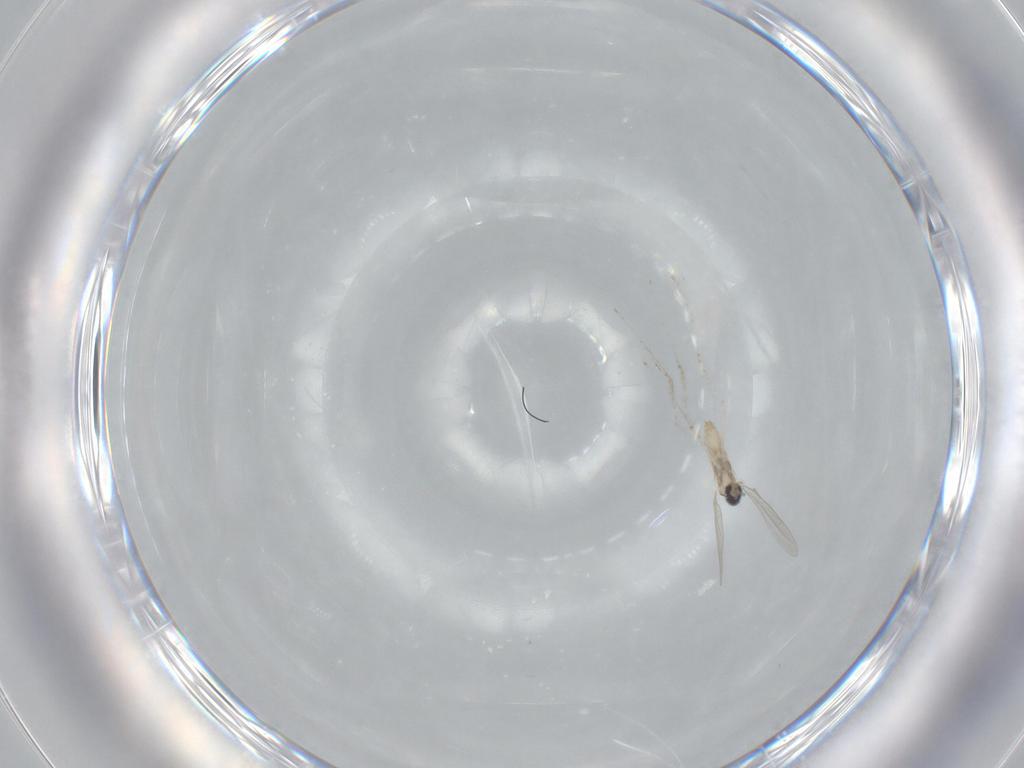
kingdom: Animalia
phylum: Arthropoda
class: Insecta
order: Diptera
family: Cecidomyiidae
